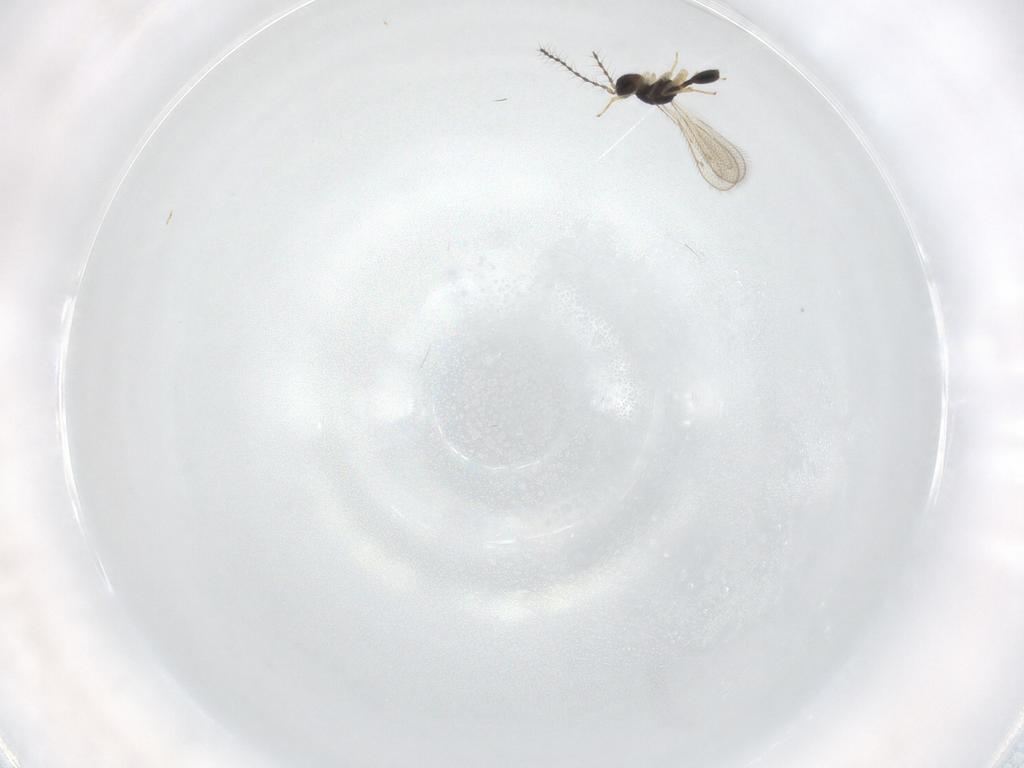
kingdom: Animalia
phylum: Arthropoda
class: Insecta
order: Hymenoptera
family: Diparidae
